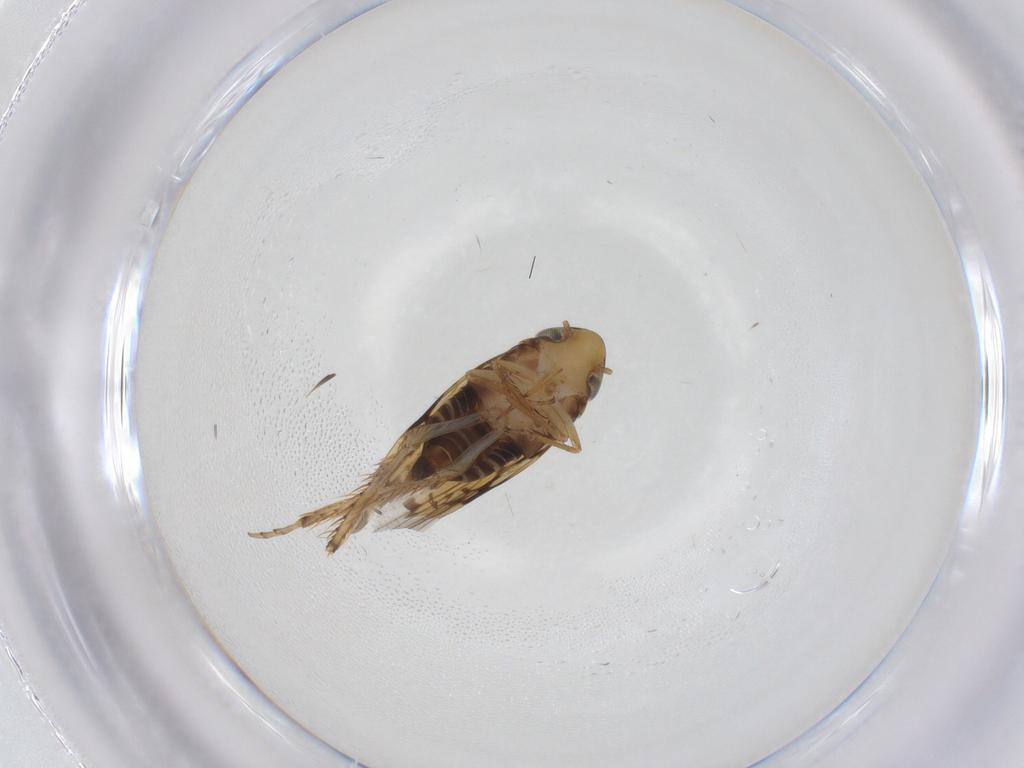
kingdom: Animalia
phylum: Arthropoda
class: Insecta
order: Hemiptera
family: Cicadellidae
